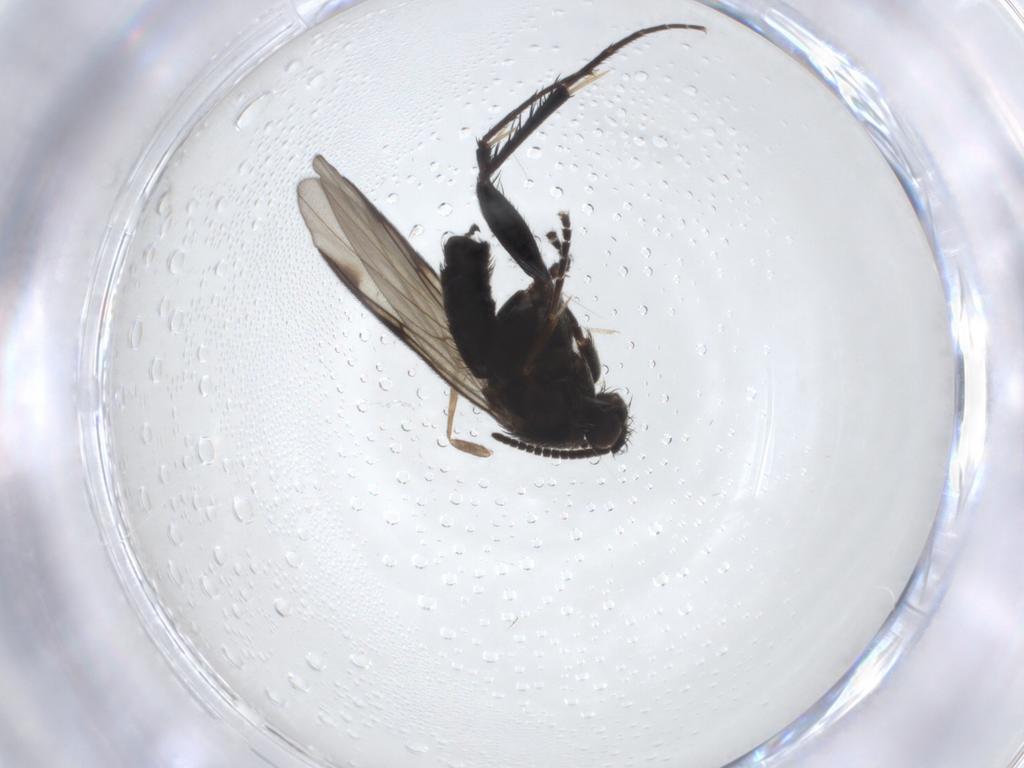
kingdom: Animalia
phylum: Arthropoda
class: Insecta
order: Diptera
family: Mycetophilidae
